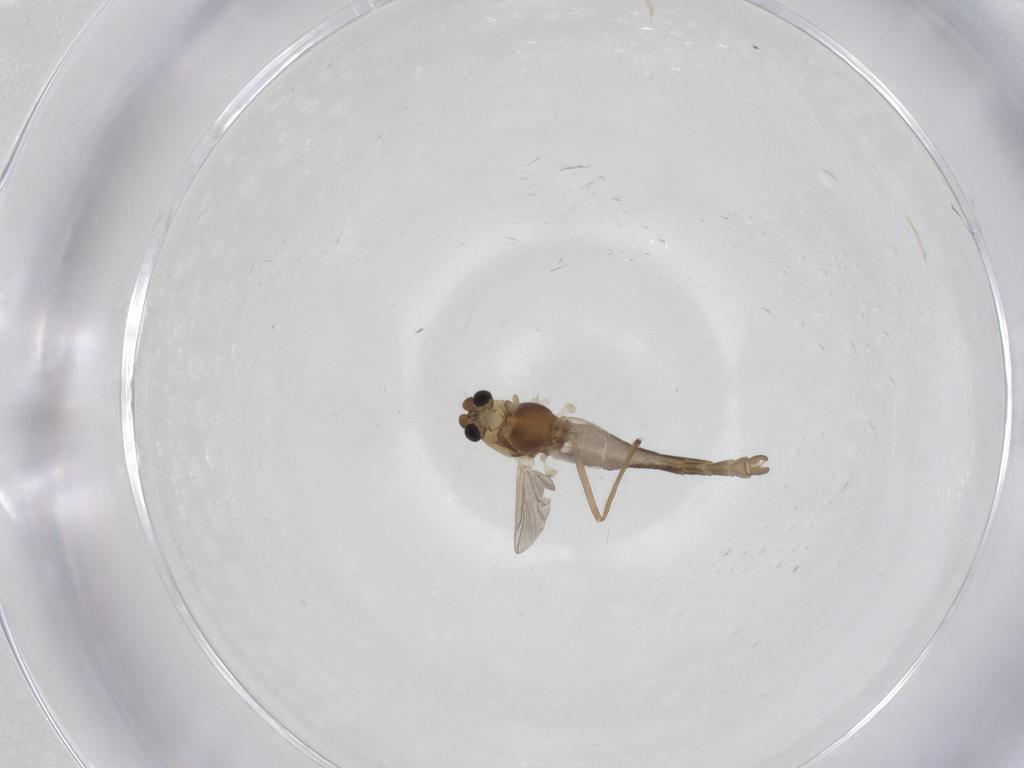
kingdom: Animalia
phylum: Arthropoda
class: Insecta
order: Diptera
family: Chironomidae
